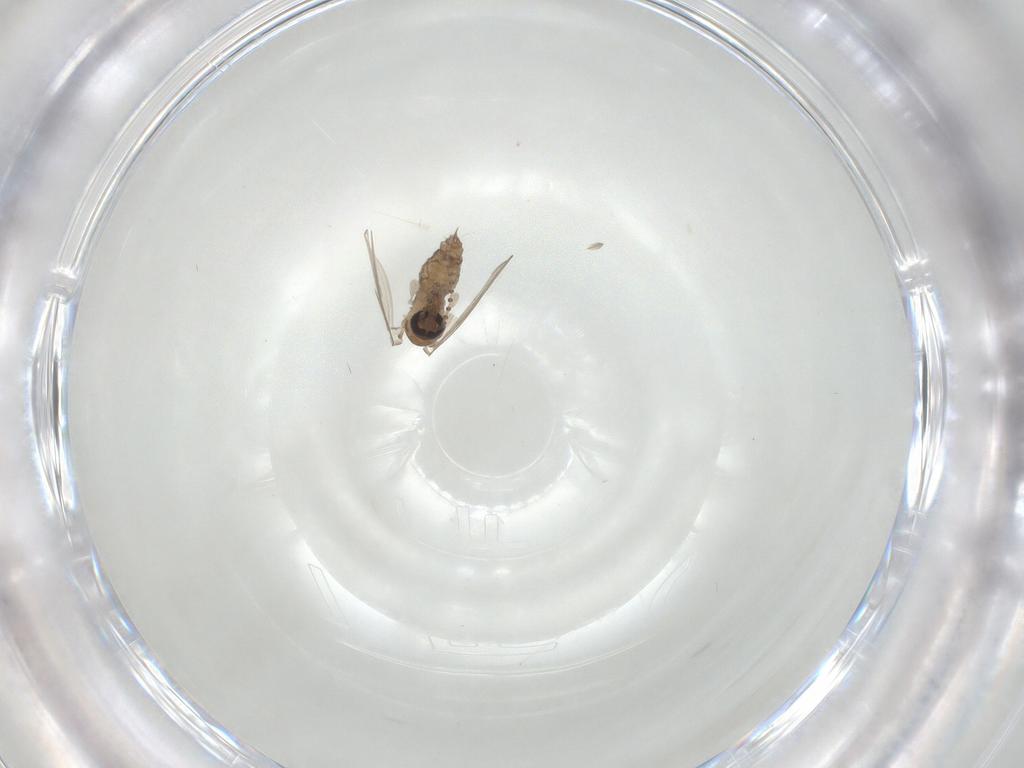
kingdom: Animalia
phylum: Arthropoda
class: Insecta
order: Diptera
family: Psychodidae
